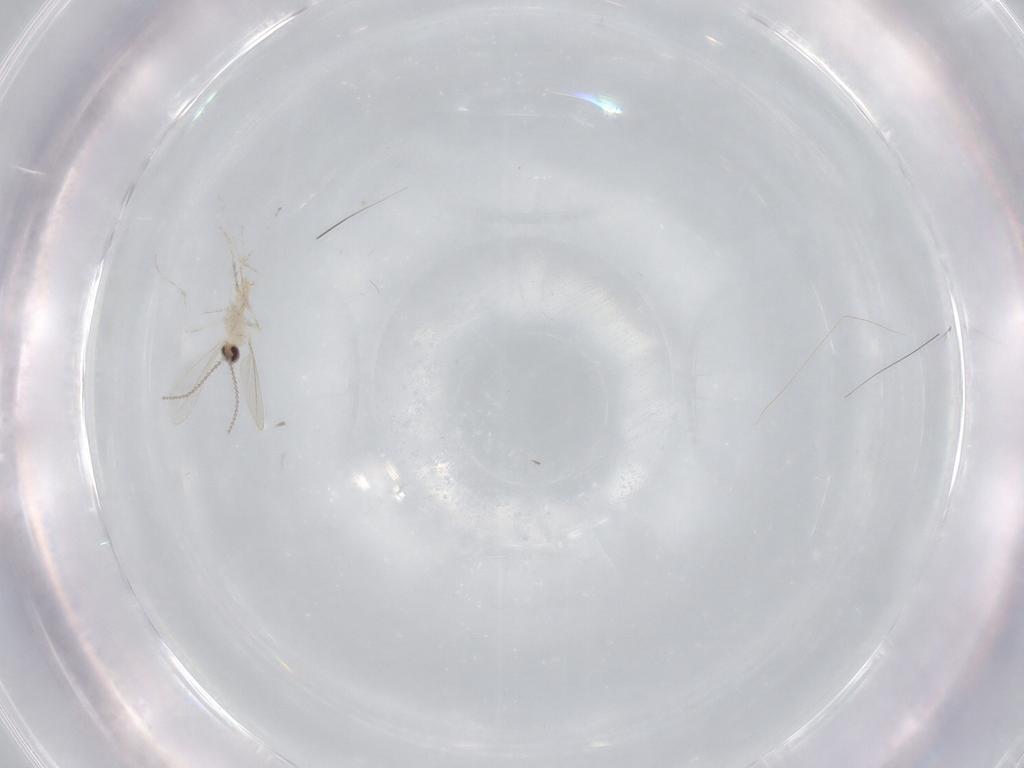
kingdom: Animalia
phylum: Arthropoda
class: Insecta
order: Diptera
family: Cecidomyiidae
